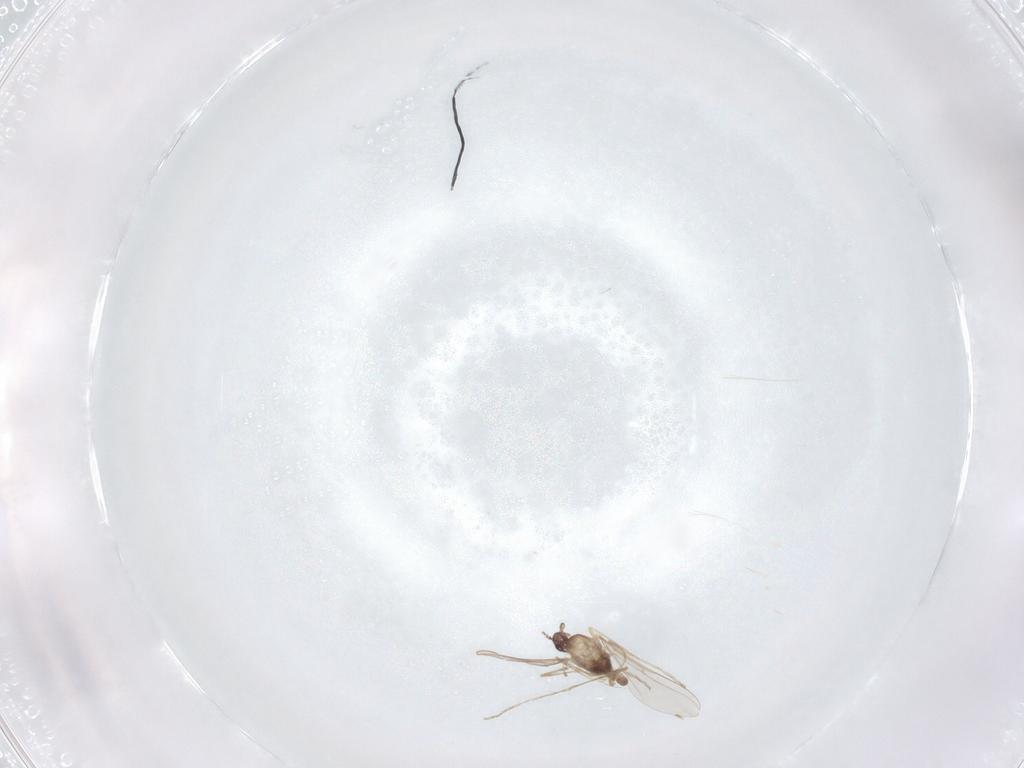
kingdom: Animalia
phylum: Arthropoda
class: Insecta
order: Diptera
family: Cecidomyiidae
